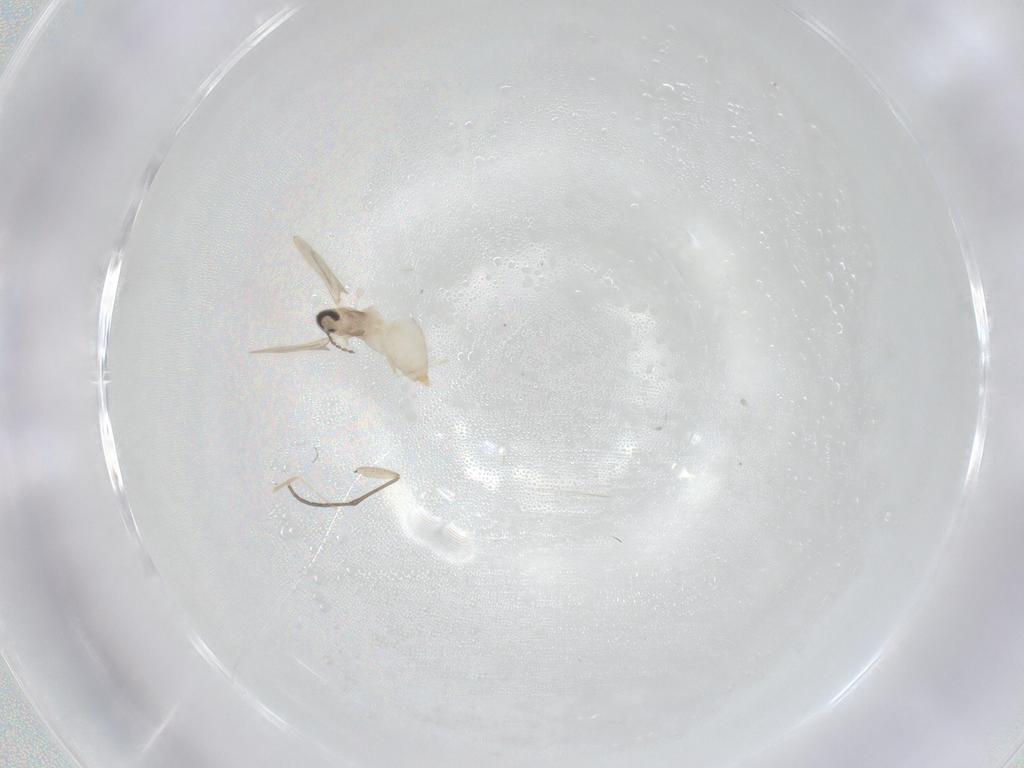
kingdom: Animalia
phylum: Arthropoda
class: Insecta
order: Diptera
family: Cecidomyiidae
